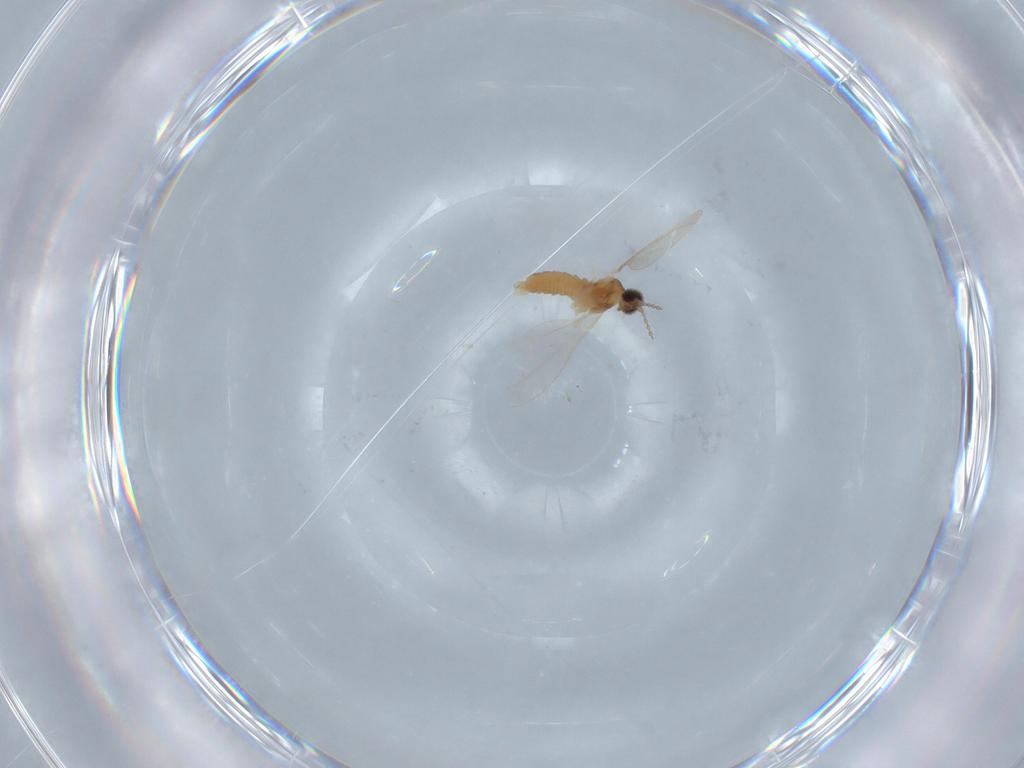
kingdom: Animalia
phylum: Arthropoda
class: Insecta
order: Diptera
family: Cecidomyiidae
